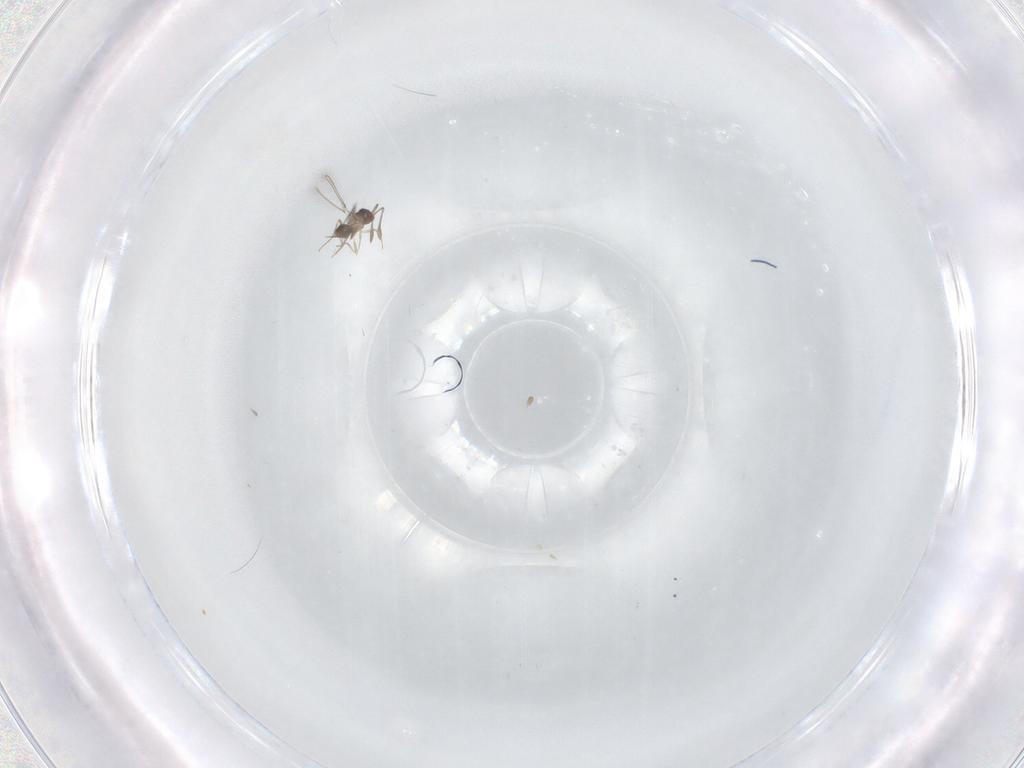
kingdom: Animalia
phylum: Arthropoda
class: Insecta
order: Hymenoptera
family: Mymaridae
